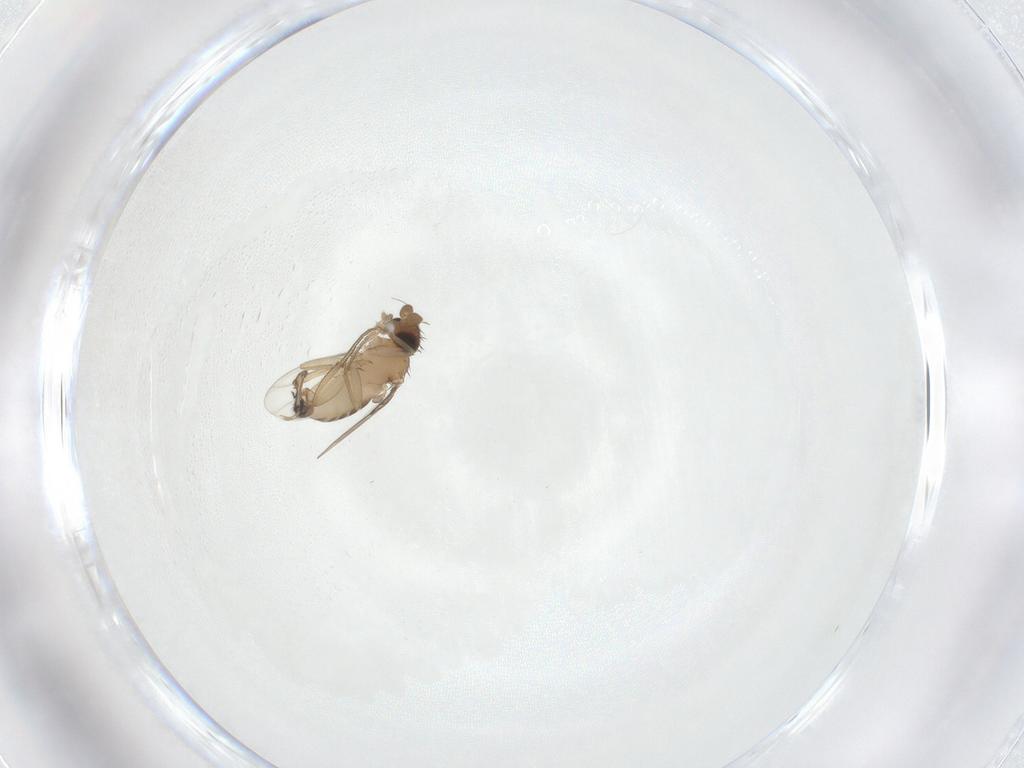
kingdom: Animalia
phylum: Arthropoda
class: Insecta
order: Diptera
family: Phoridae
